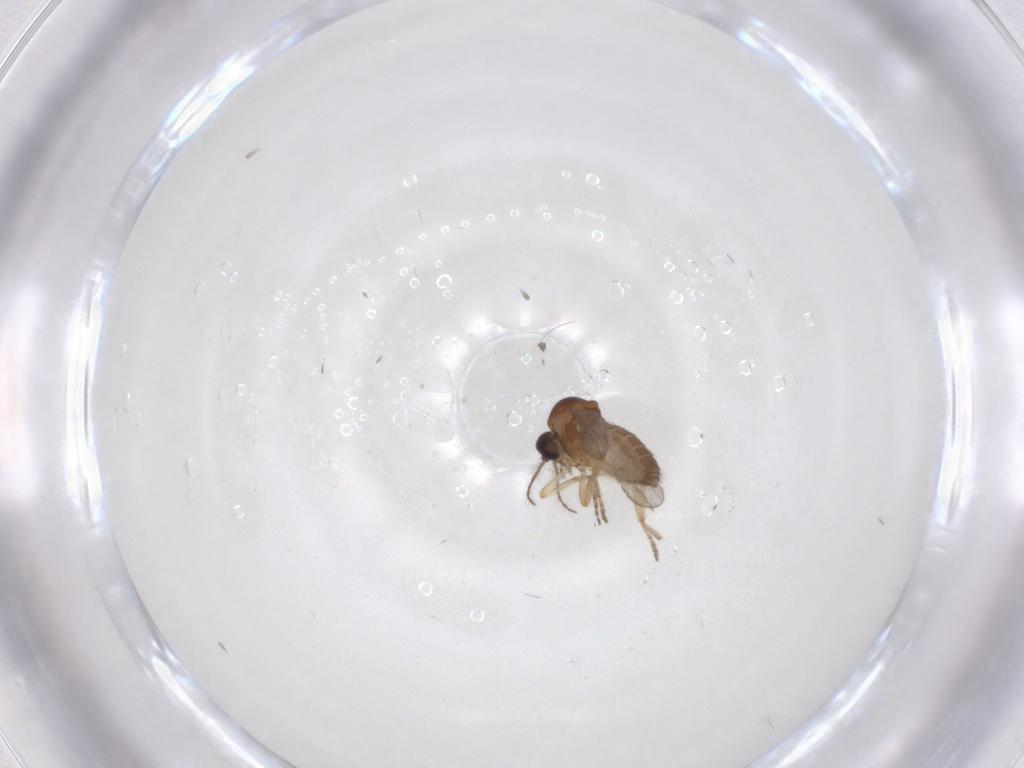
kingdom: Animalia
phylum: Arthropoda
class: Insecta
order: Diptera
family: Ceratopogonidae
